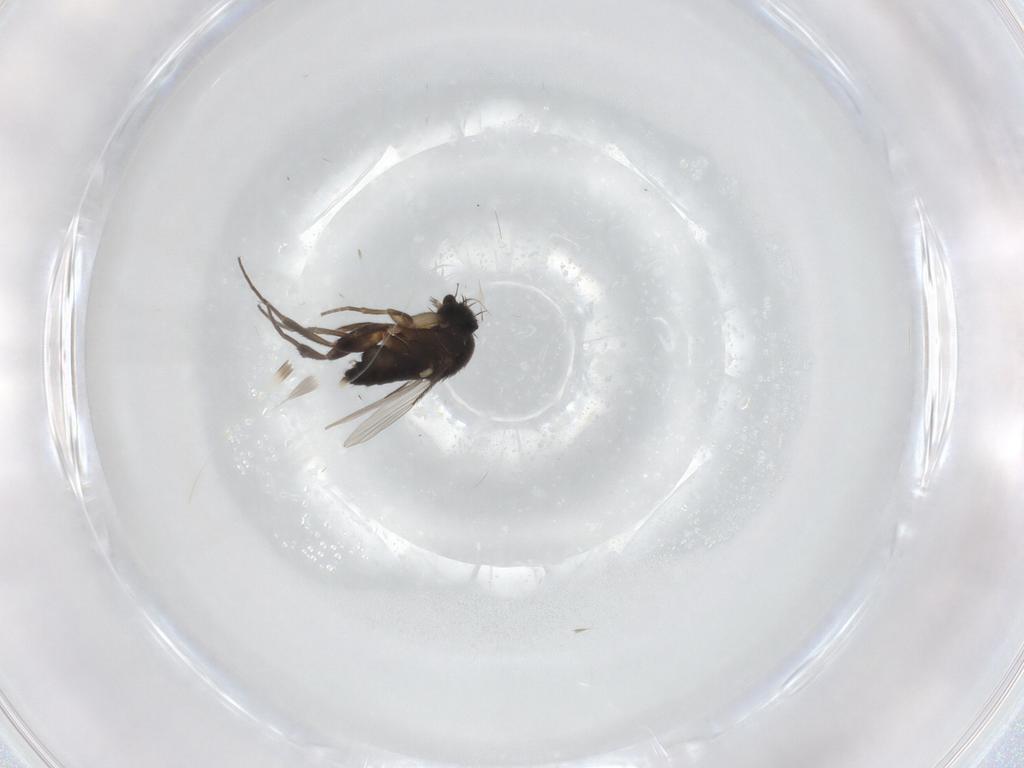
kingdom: Animalia
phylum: Arthropoda
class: Insecta
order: Diptera
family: Phoridae
